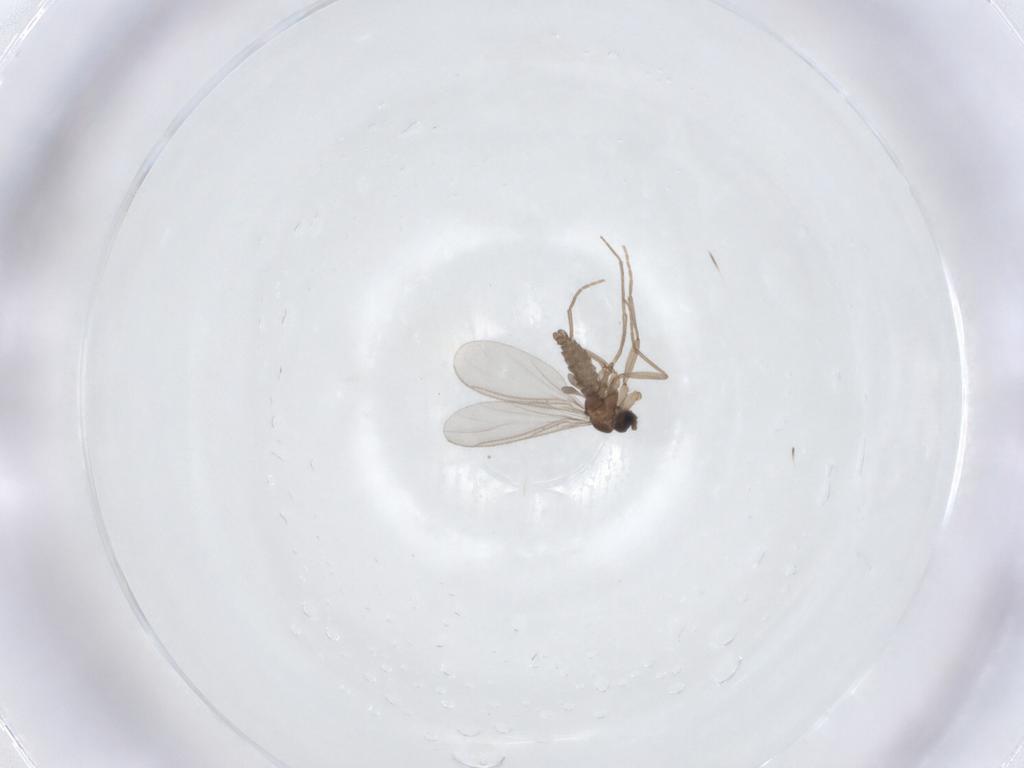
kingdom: Animalia
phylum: Arthropoda
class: Insecta
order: Diptera
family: Sciaridae
